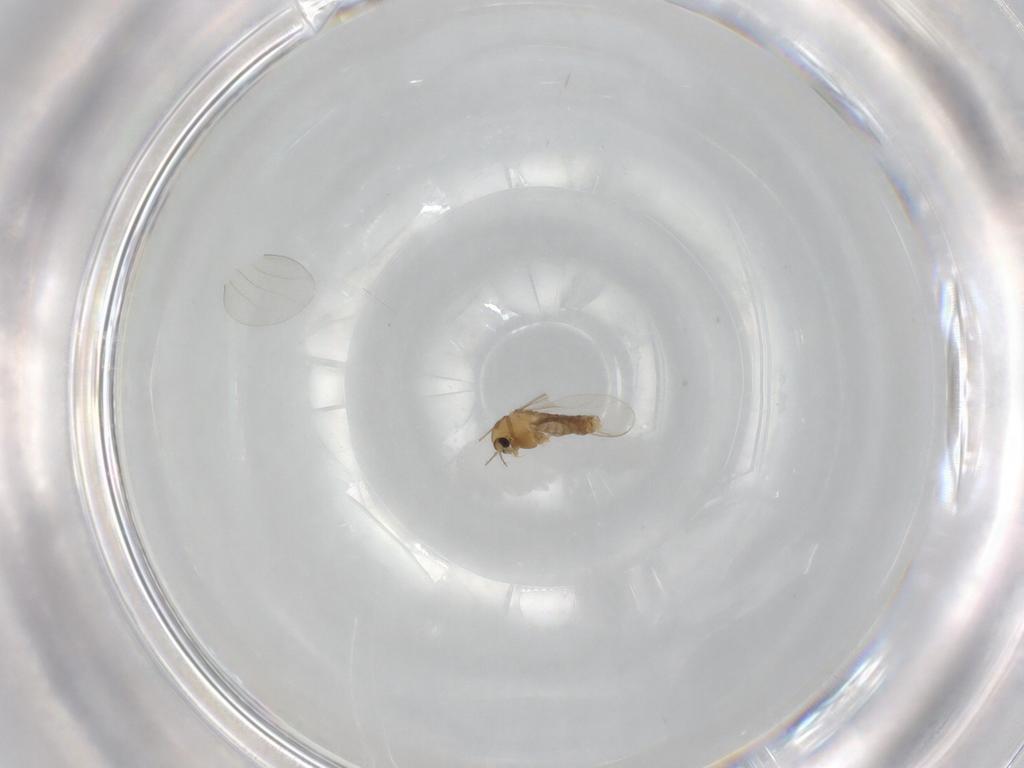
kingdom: Animalia
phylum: Arthropoda
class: Insecta
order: Diptera
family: Chironomidae
